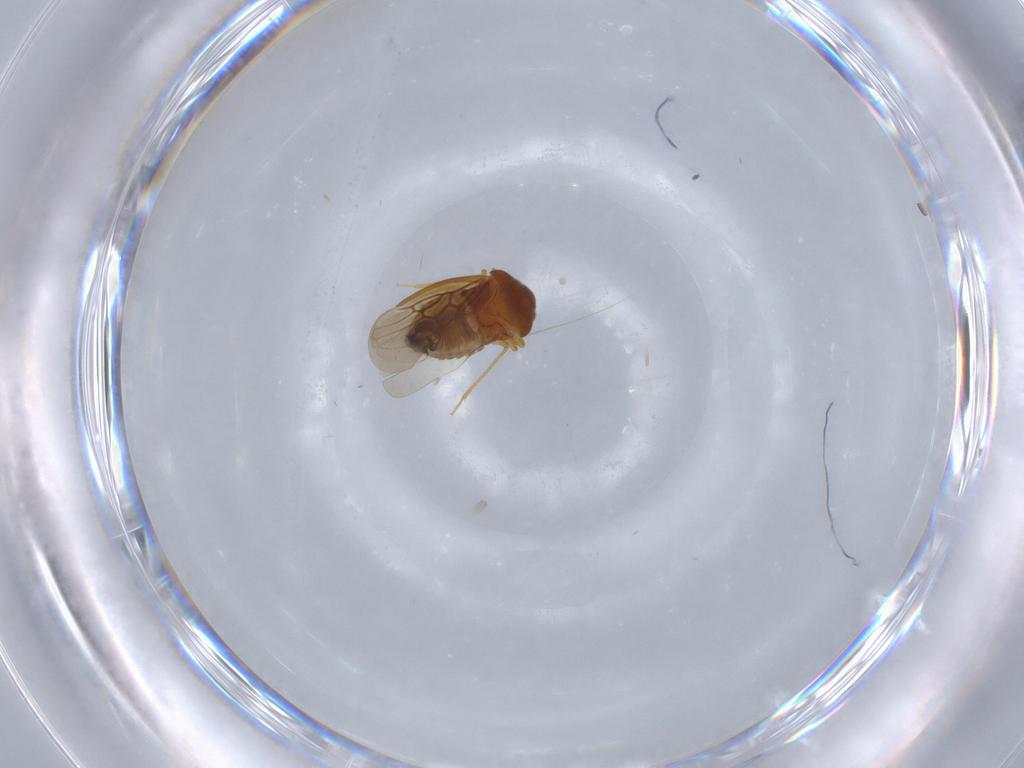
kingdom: Animalia
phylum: Arthropoda
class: Insecta
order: Hemiptera
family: Schizopteridae
